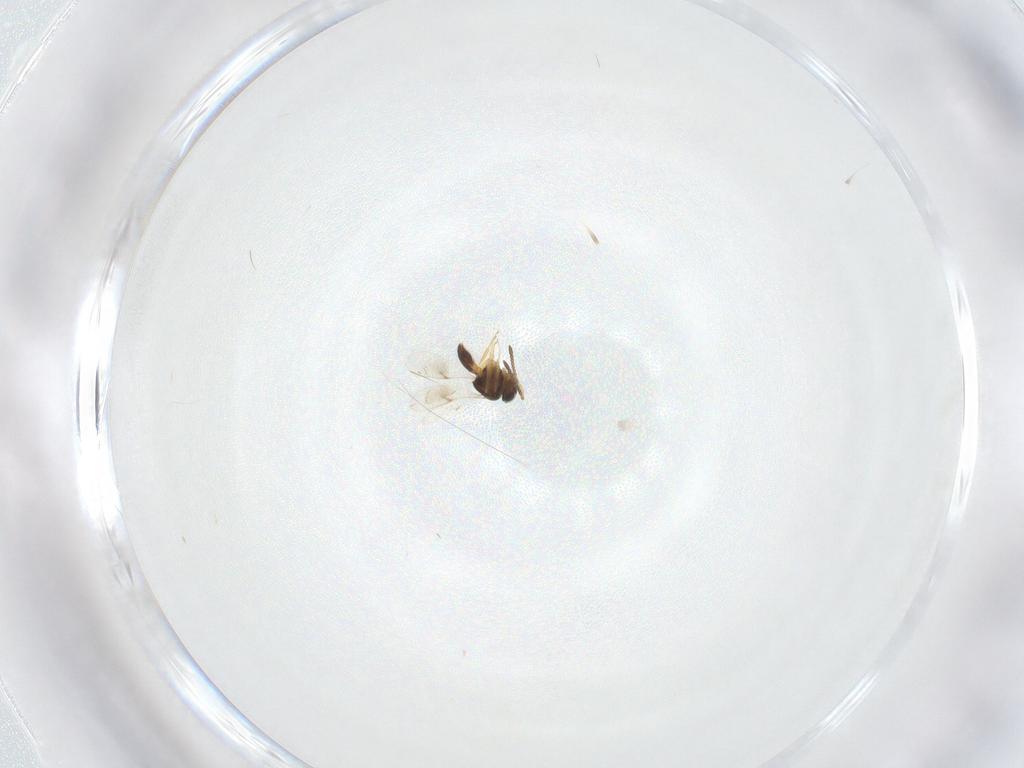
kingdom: Animalia
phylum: Arthropoda
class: Insecta
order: Hymenoptera
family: Scelionidae
